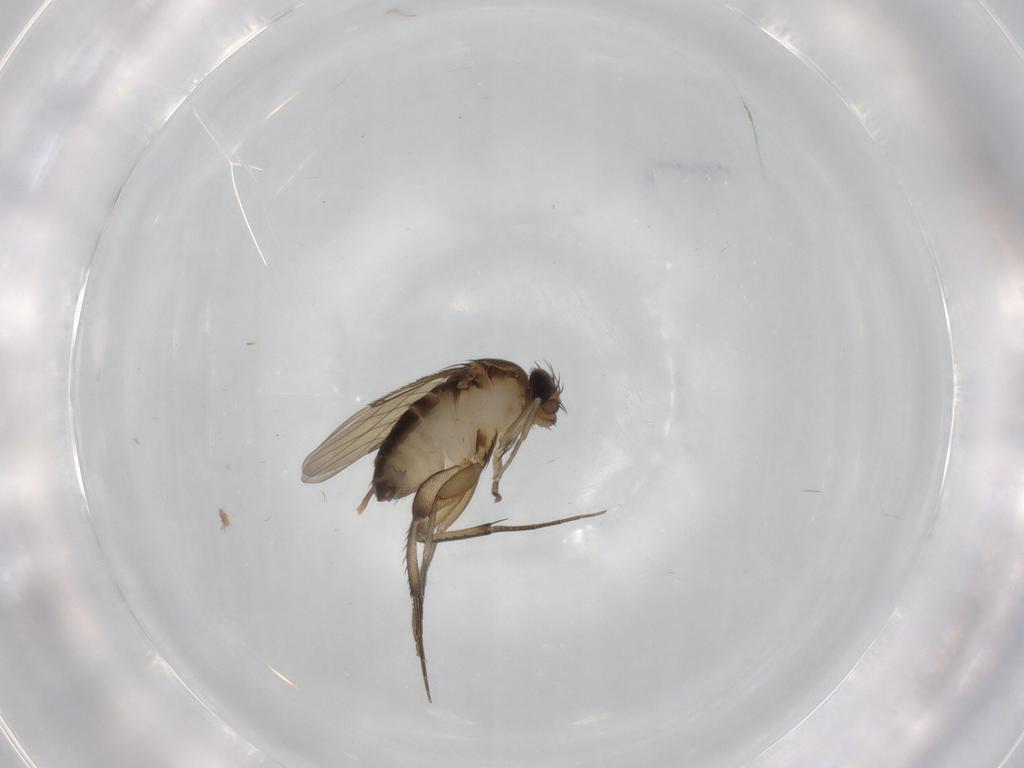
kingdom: Animalia
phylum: Arthropoda
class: Insecta
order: Diptera
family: Phoridae
